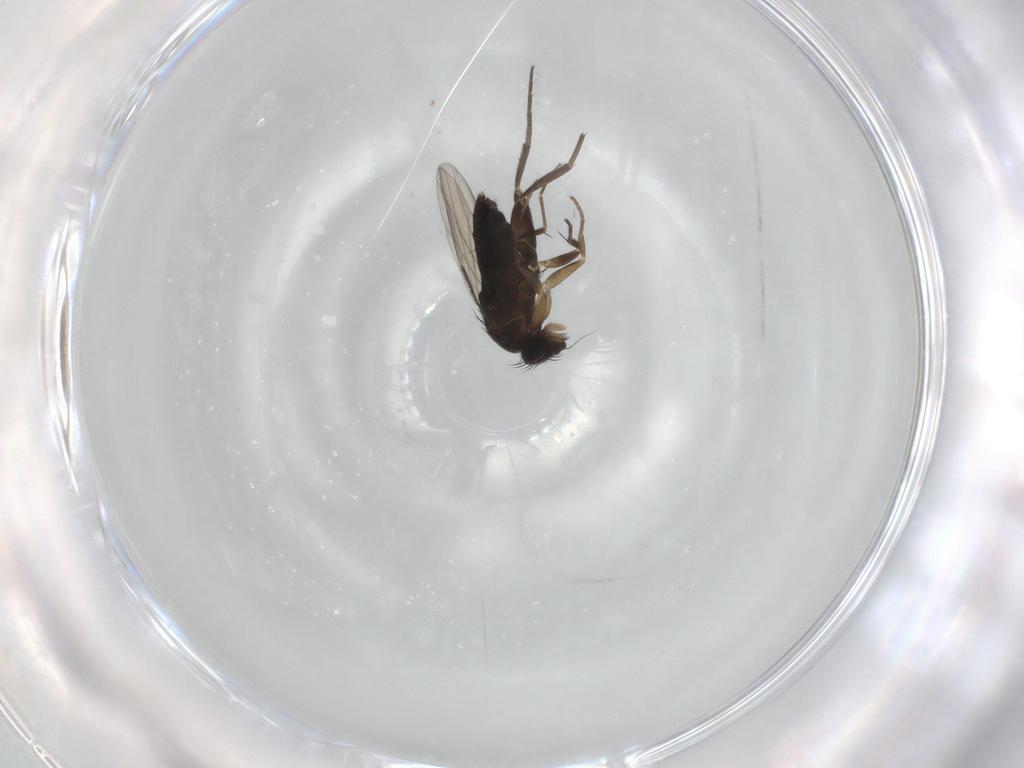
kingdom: Animalia
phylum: Arthropoda
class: Insecta
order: Diptera
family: Phoridae
